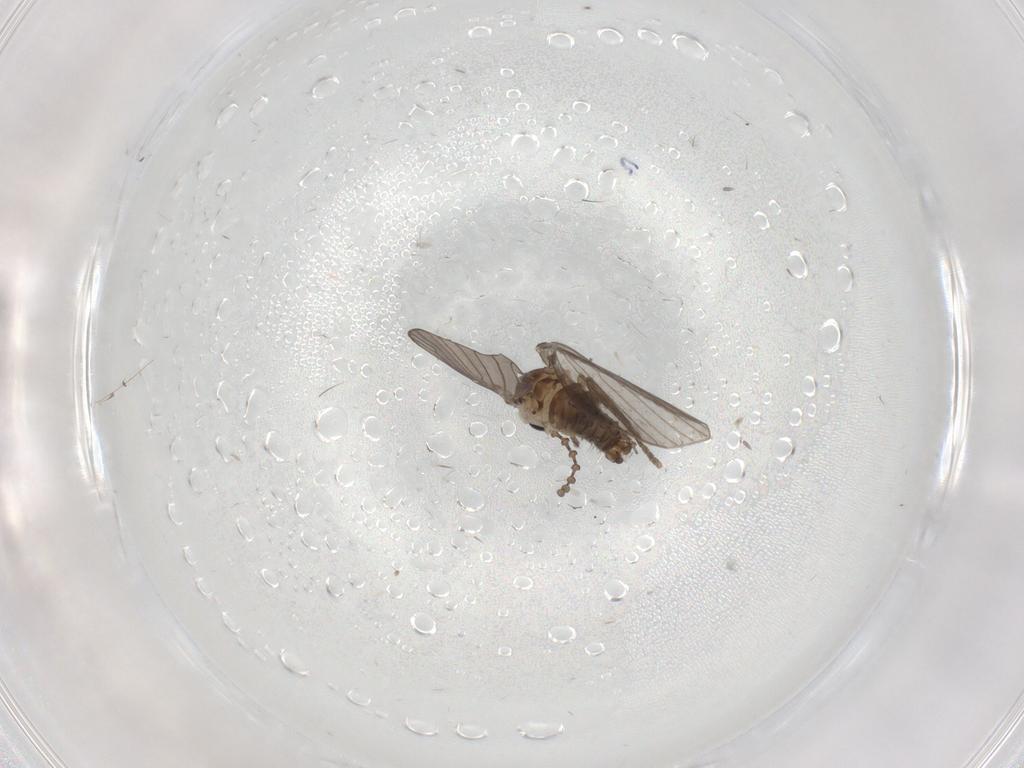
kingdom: Animalia
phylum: Arthropoda
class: Insecta
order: Diptera
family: Psychodidae
